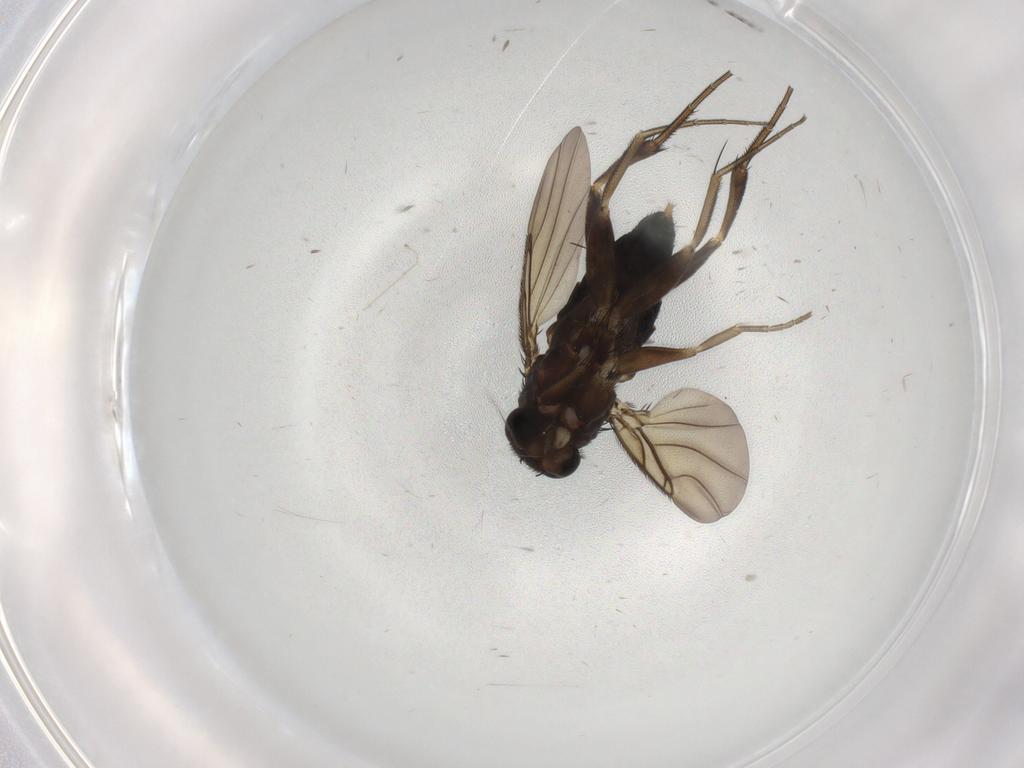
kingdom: Animalia
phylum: Arthropoda
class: Insecta
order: Diptera
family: Phoridae
